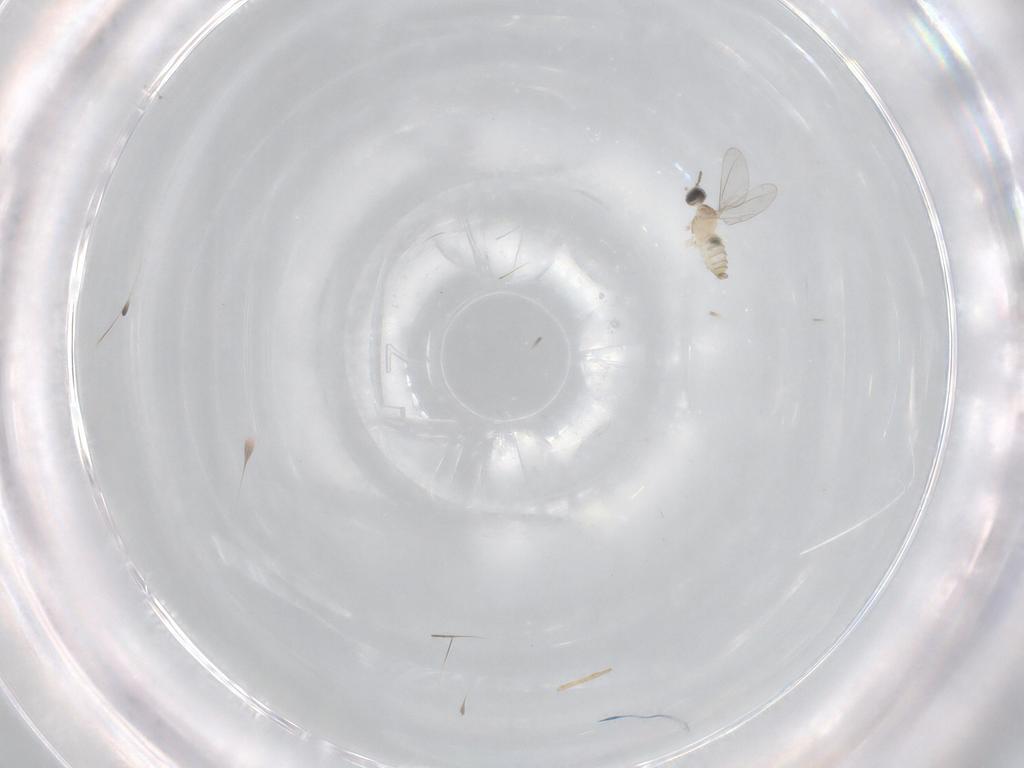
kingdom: Animalia
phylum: Arthropoda
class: Insecta
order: Diptera
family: Cecidomyiidae
